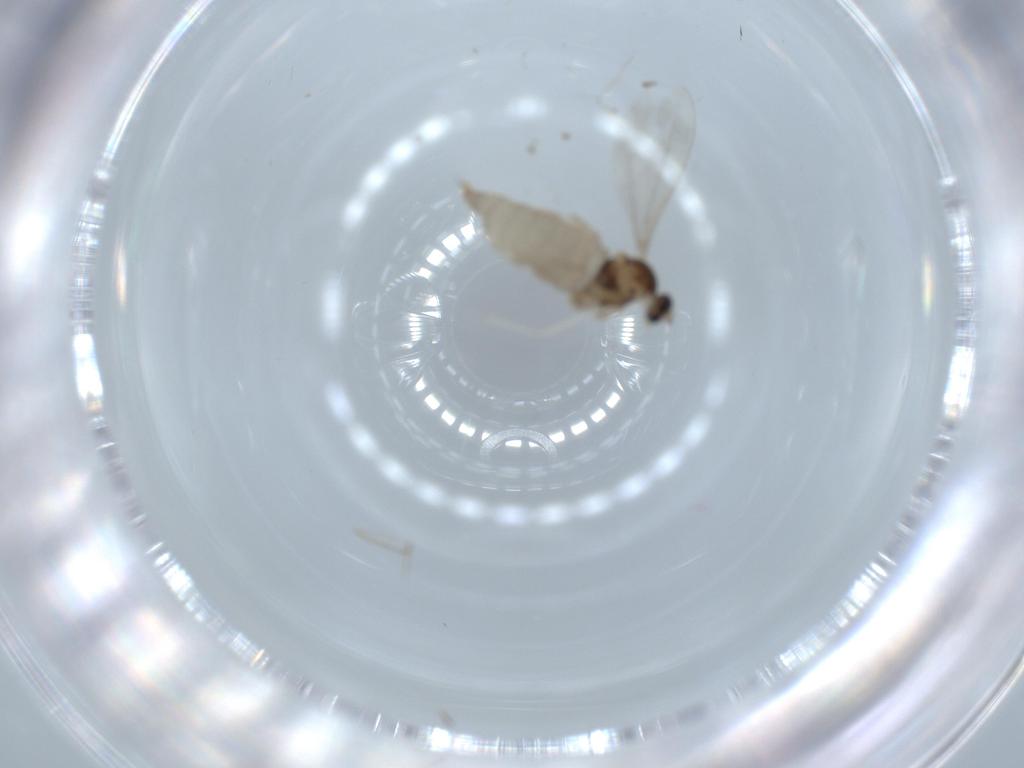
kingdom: Animalia
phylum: Arthropoda
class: Insecta
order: Diptera
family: Cecidomyiidae
